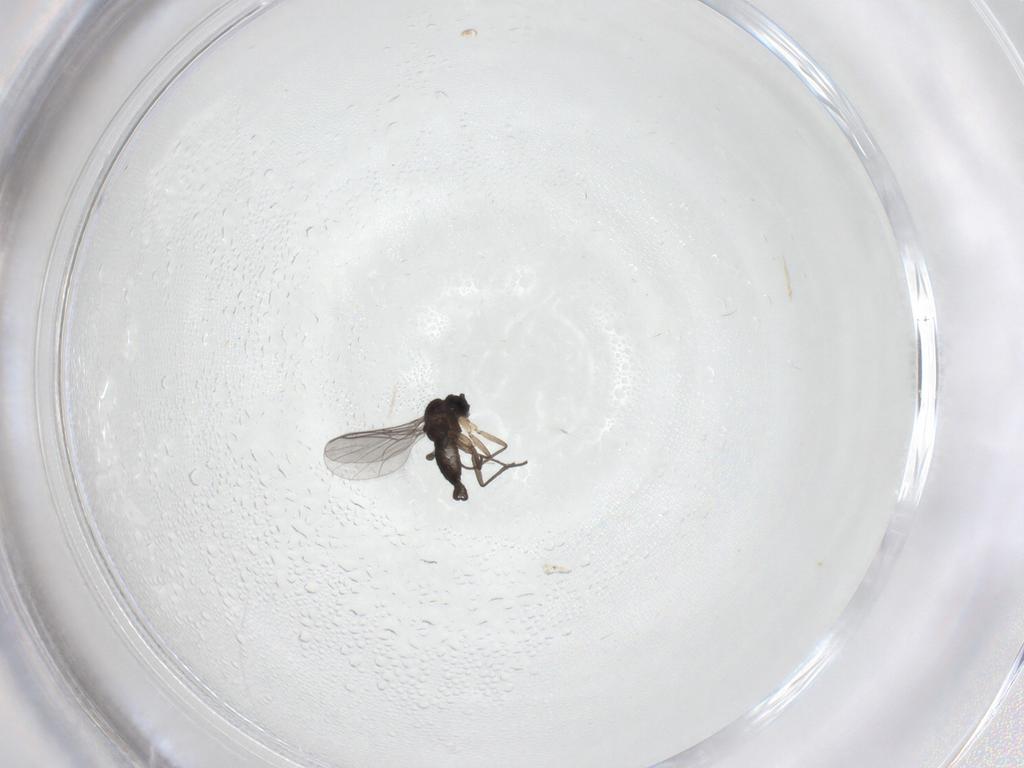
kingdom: Animalia
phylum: Arthropoda
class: Insecta
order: Diptera
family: Sciaridae
